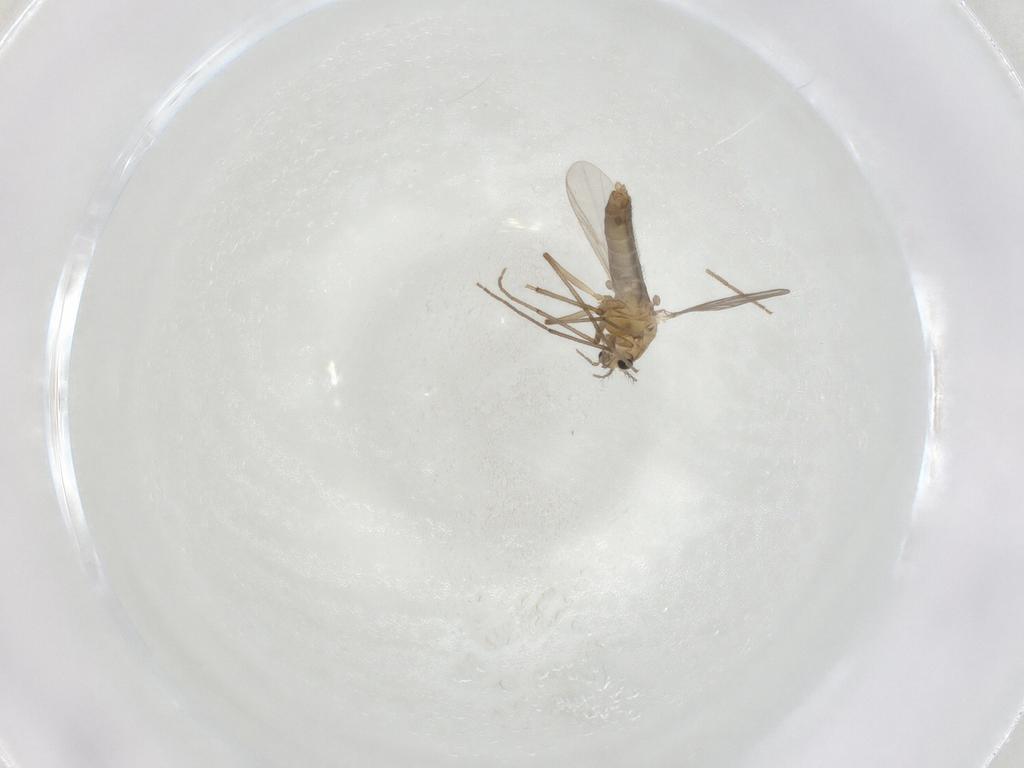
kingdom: Animalia
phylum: Arthropoda
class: Insecta
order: Diptera
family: Chironomidae
